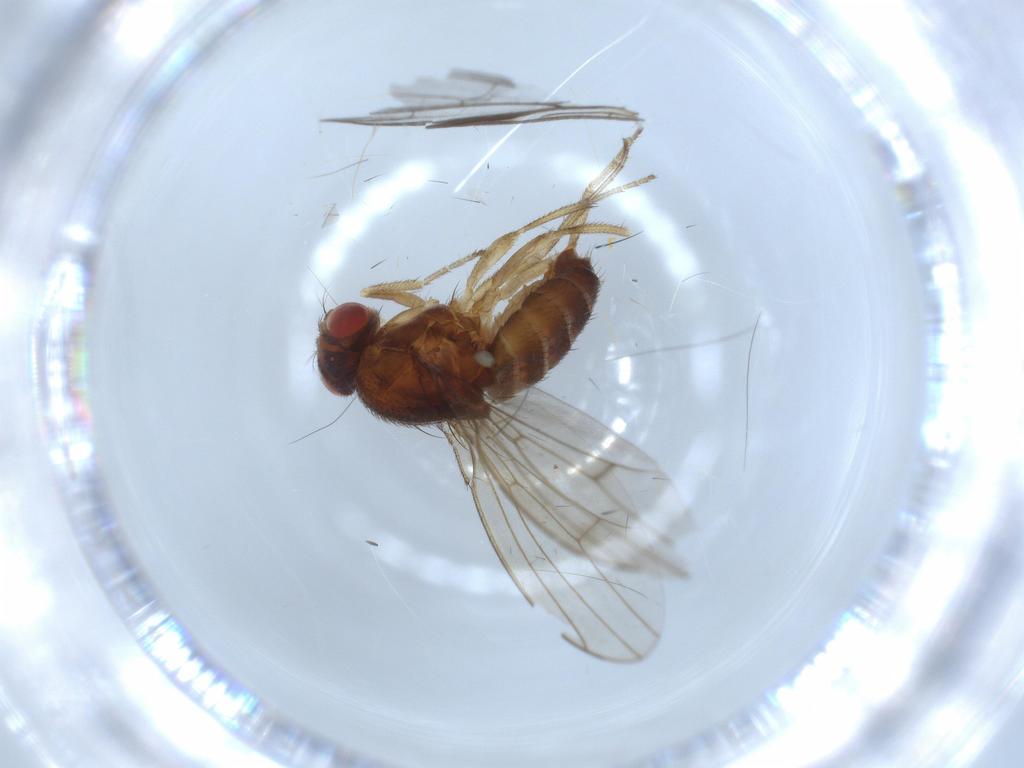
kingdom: Animalia
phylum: Arthropoda
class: Insecta
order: Diptera
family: Drosophilidae
